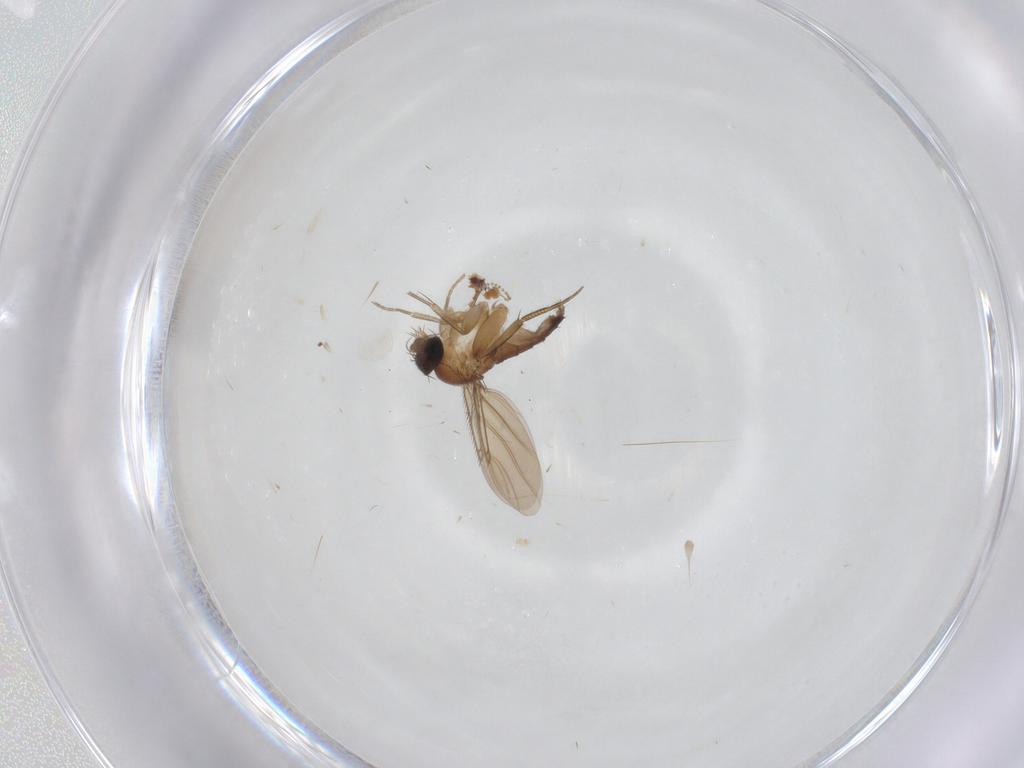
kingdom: Animalia
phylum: Arthropoda
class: Insecta
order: Diptera
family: Phoridae
